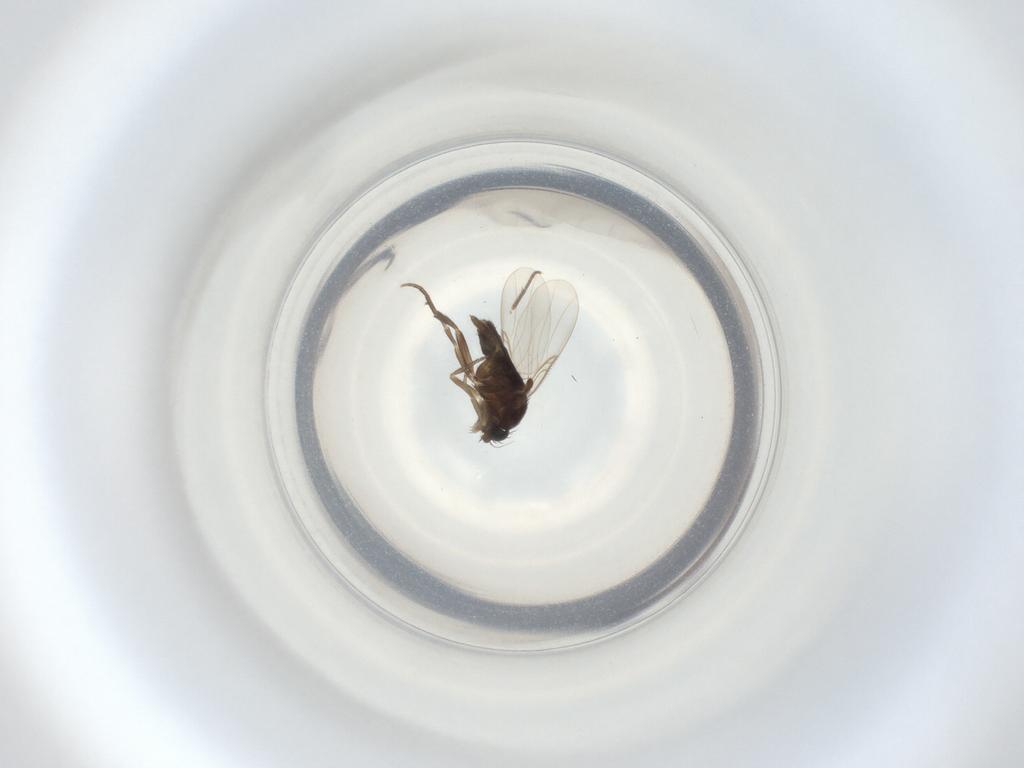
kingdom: Animalia
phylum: Arthropoda
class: Insecta
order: Diptera
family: Phoridae
